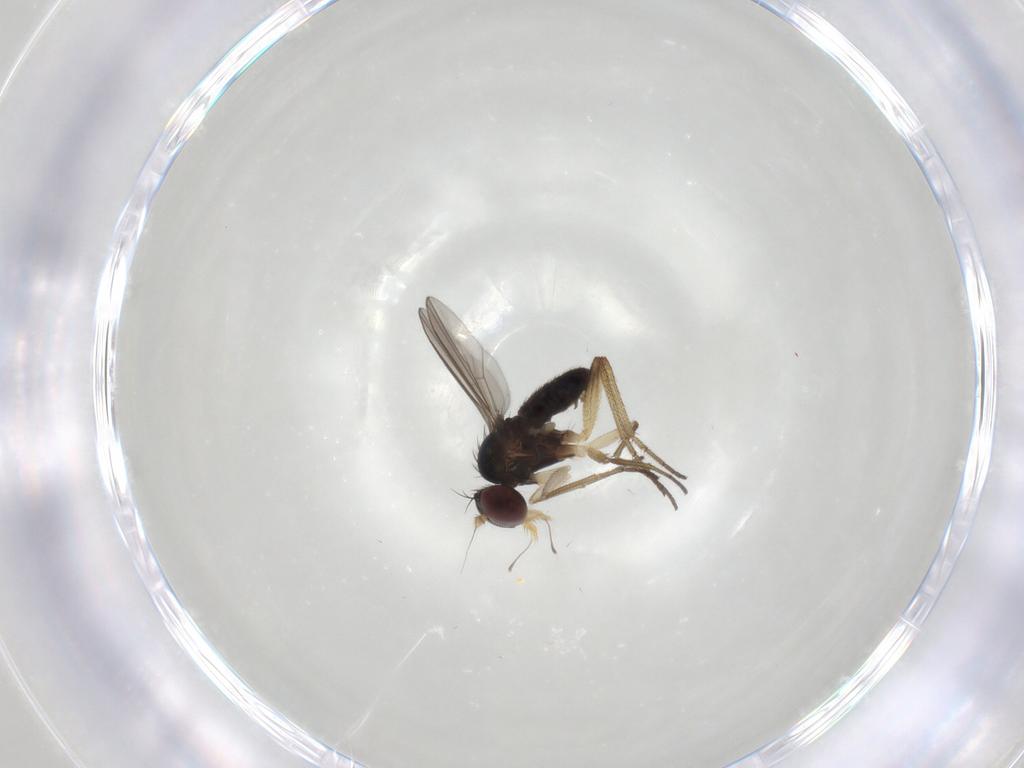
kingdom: Animalia
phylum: Arthropoda
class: Insecta
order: Diptera
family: Dolichopodidae
